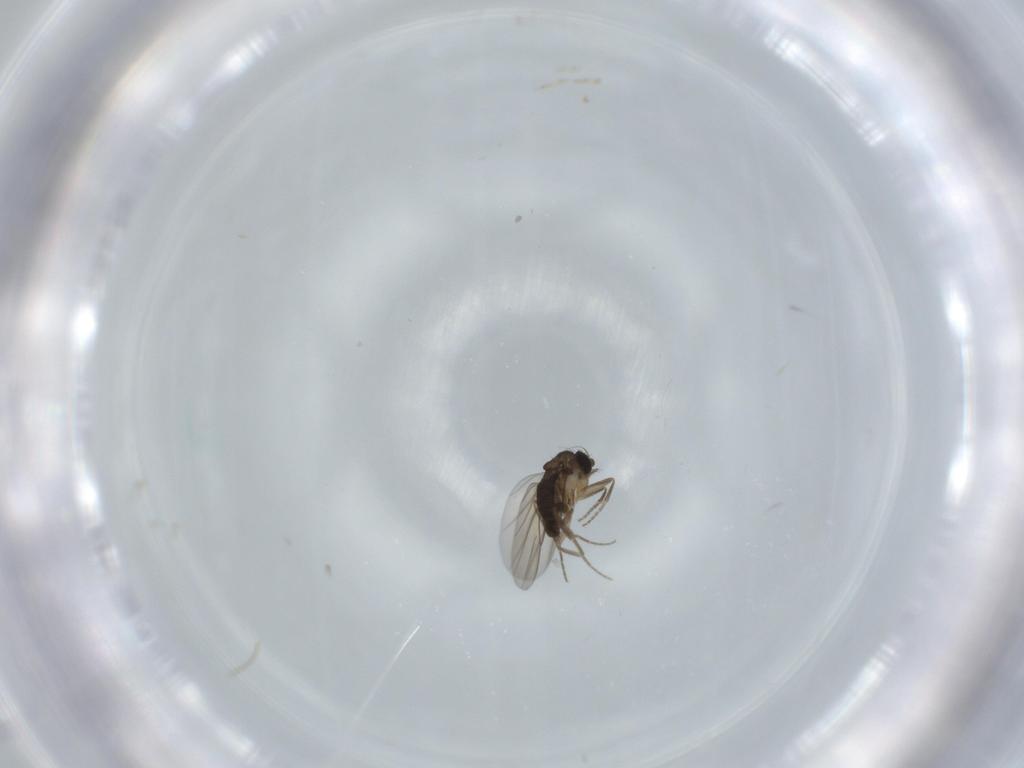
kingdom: Animalia
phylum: Arthropoda
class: Insecta
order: Diptera
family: Phoridae
